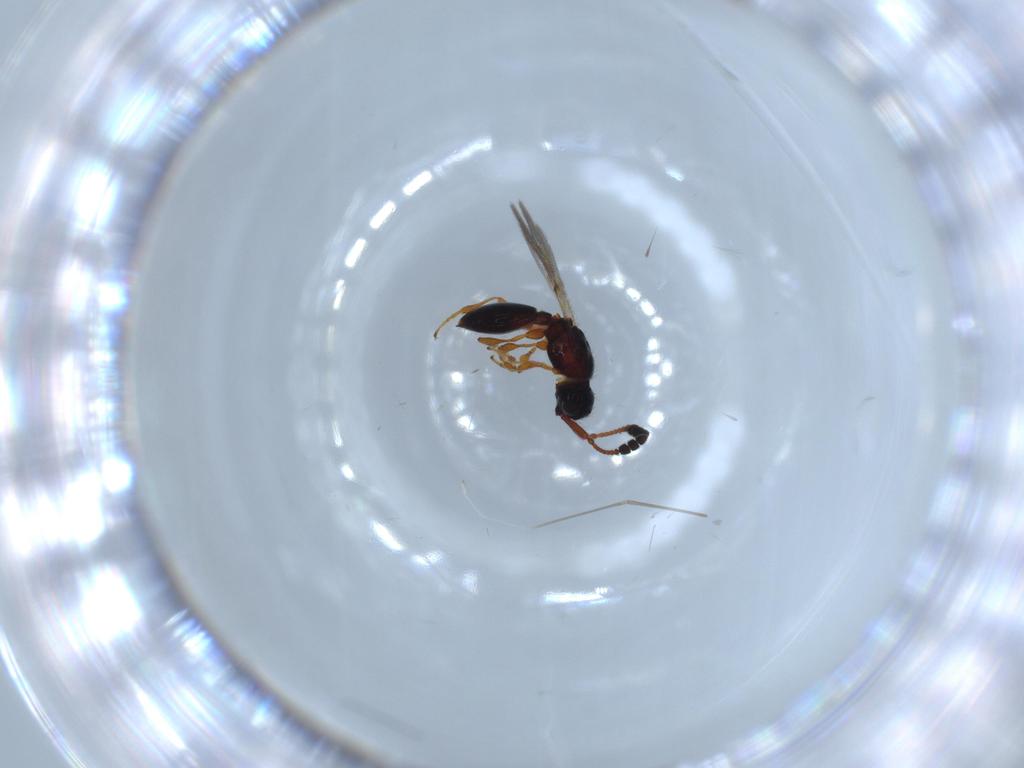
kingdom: Animalia
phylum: Arthropoda
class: Insecta
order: Hymenoptera
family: Diapriidae
